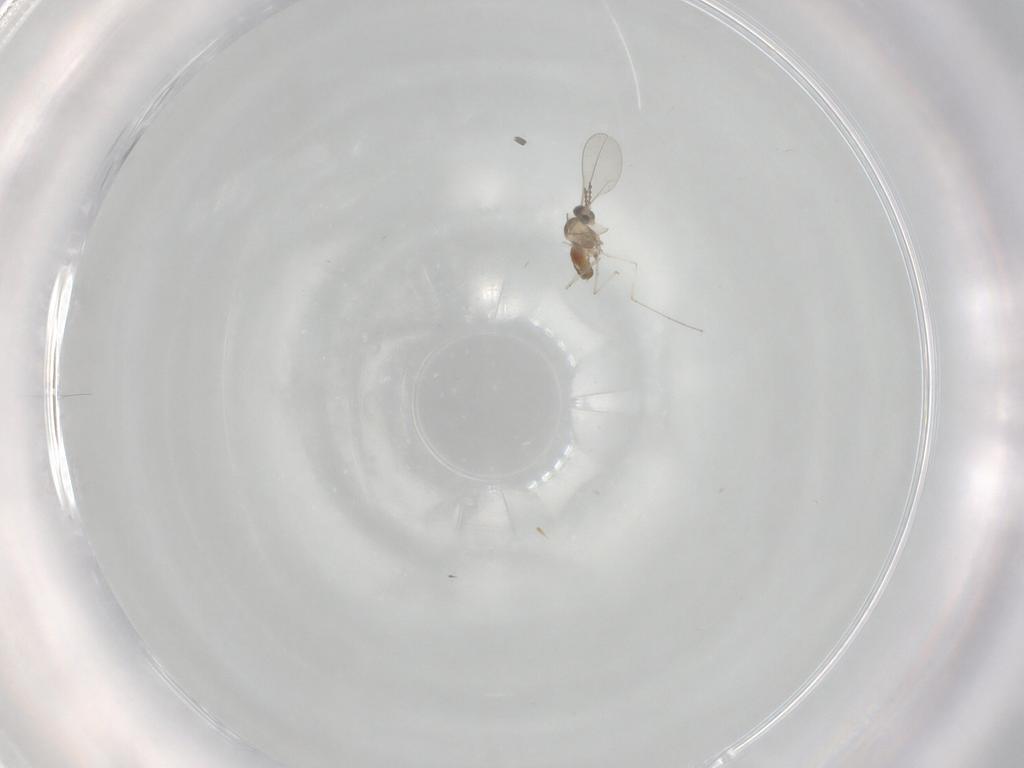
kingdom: Animalia
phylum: Arthropoda
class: Insecta
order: Diptera
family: Cecidomyiidae
